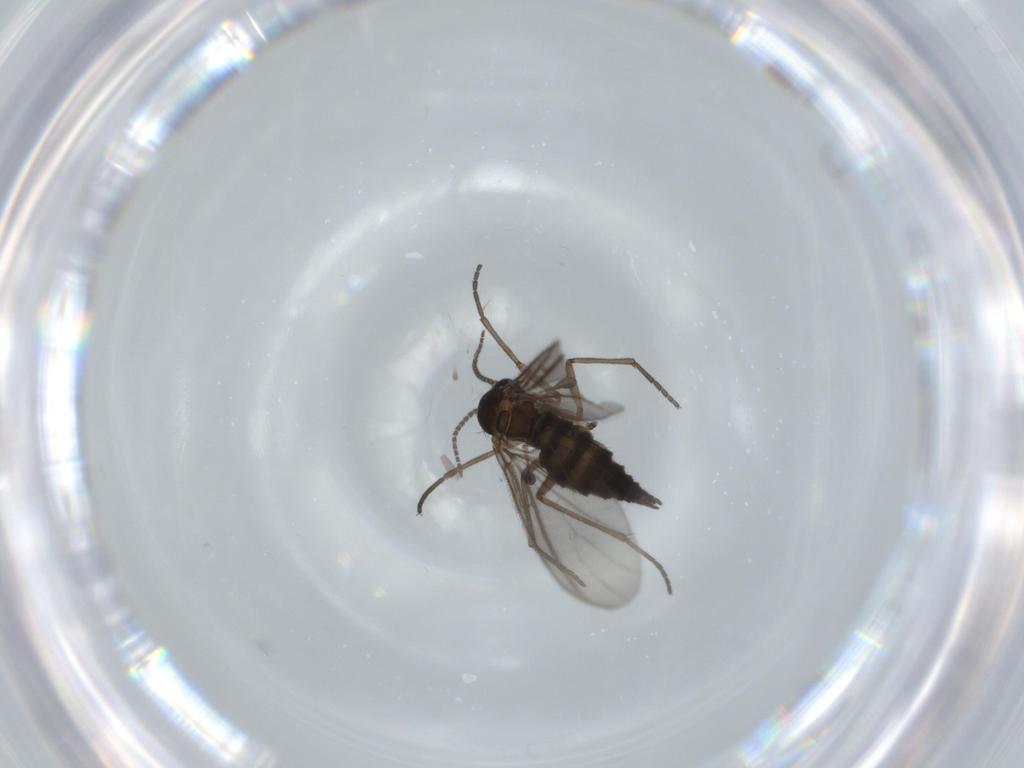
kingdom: Animalia
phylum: Arthropoda
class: Insecta
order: Diptera
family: Sciaridae
